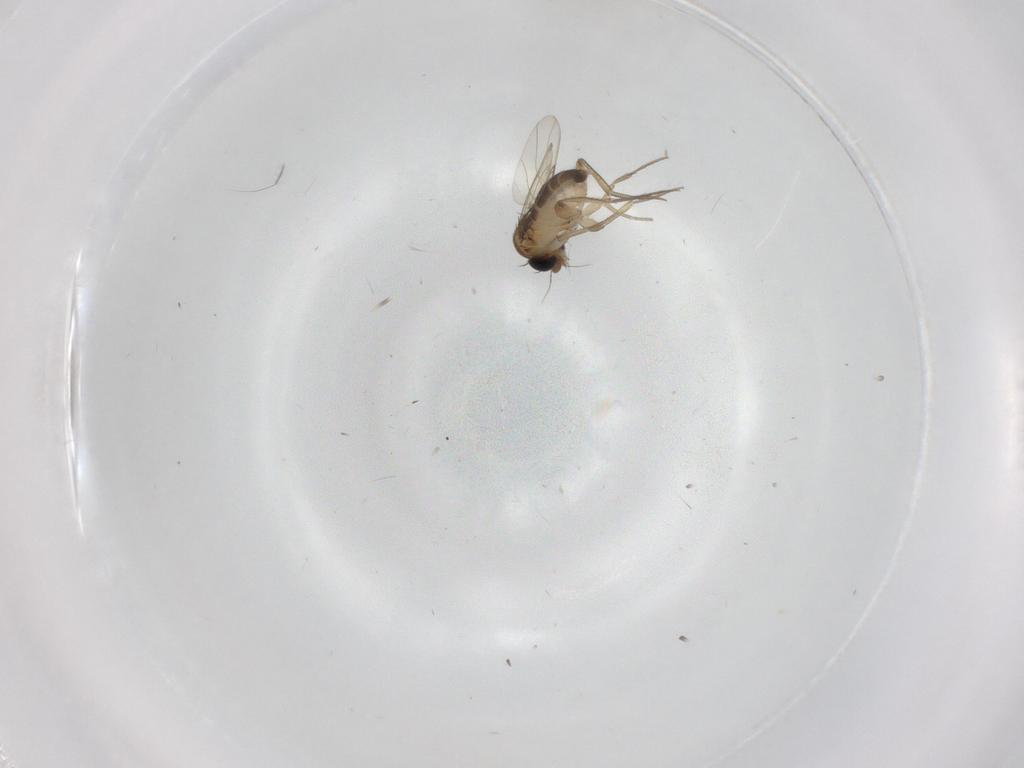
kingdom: Animalia
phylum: Arthropoda
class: Insecta
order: Diptera
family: Phoridae
